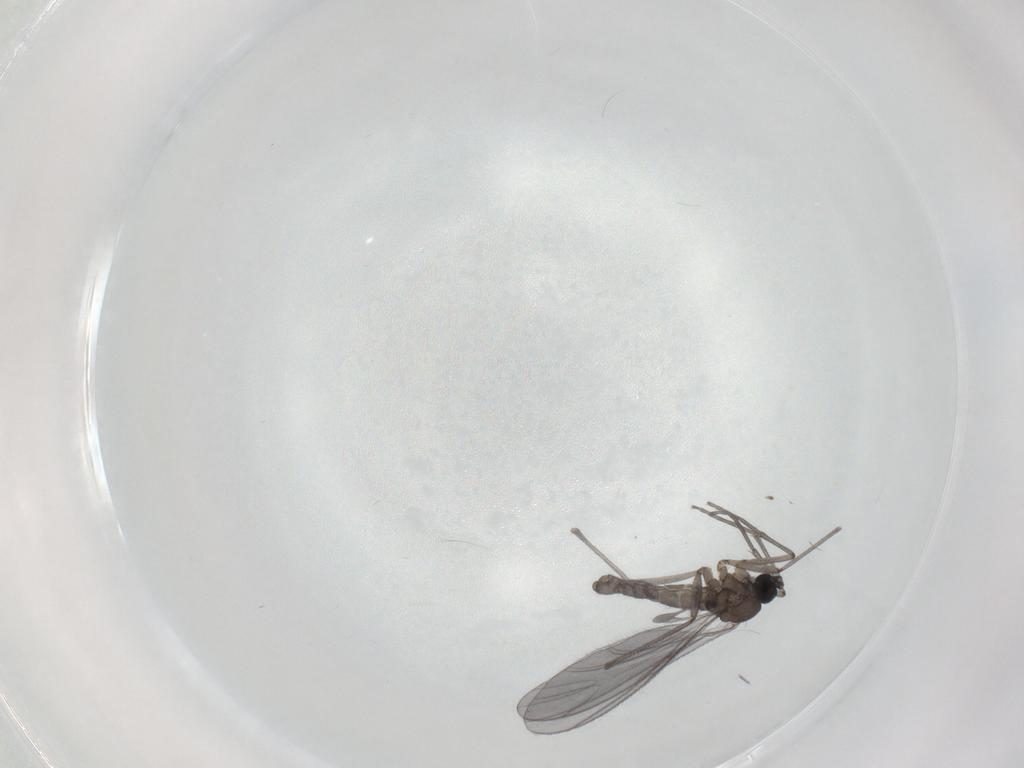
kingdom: Animalia
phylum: Arthropoda
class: Insecta
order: Diptera
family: Sciaridae
